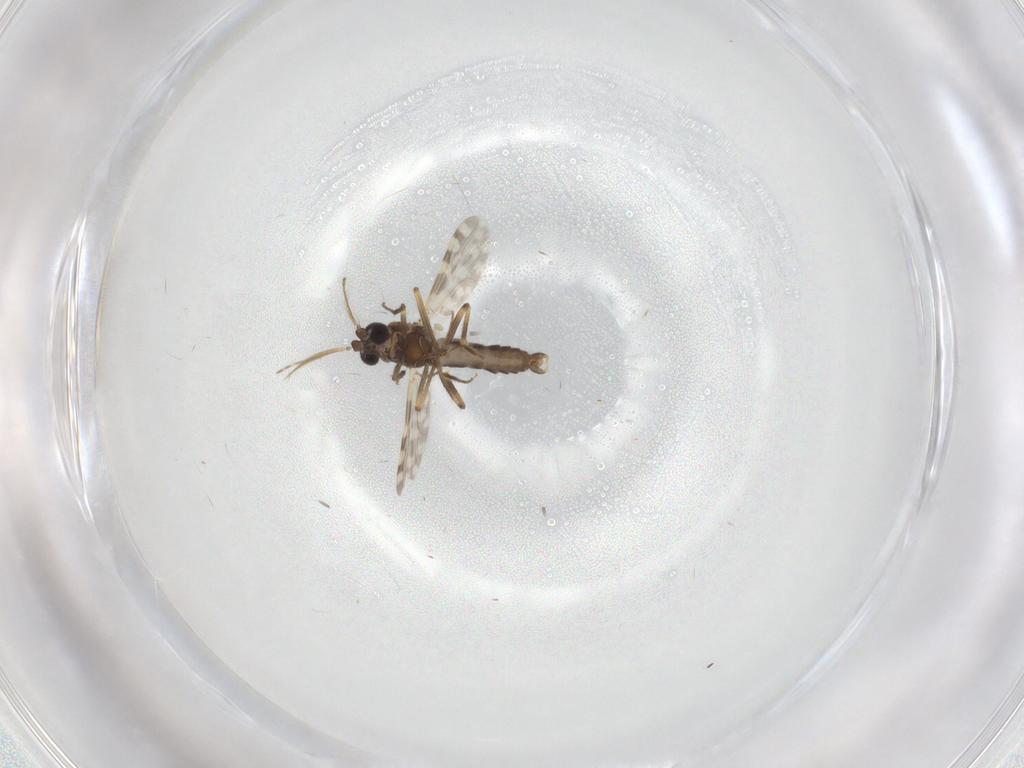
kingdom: Animalia
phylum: Arthropoda
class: Insecta
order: Diptera
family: Ceratopogonidae
